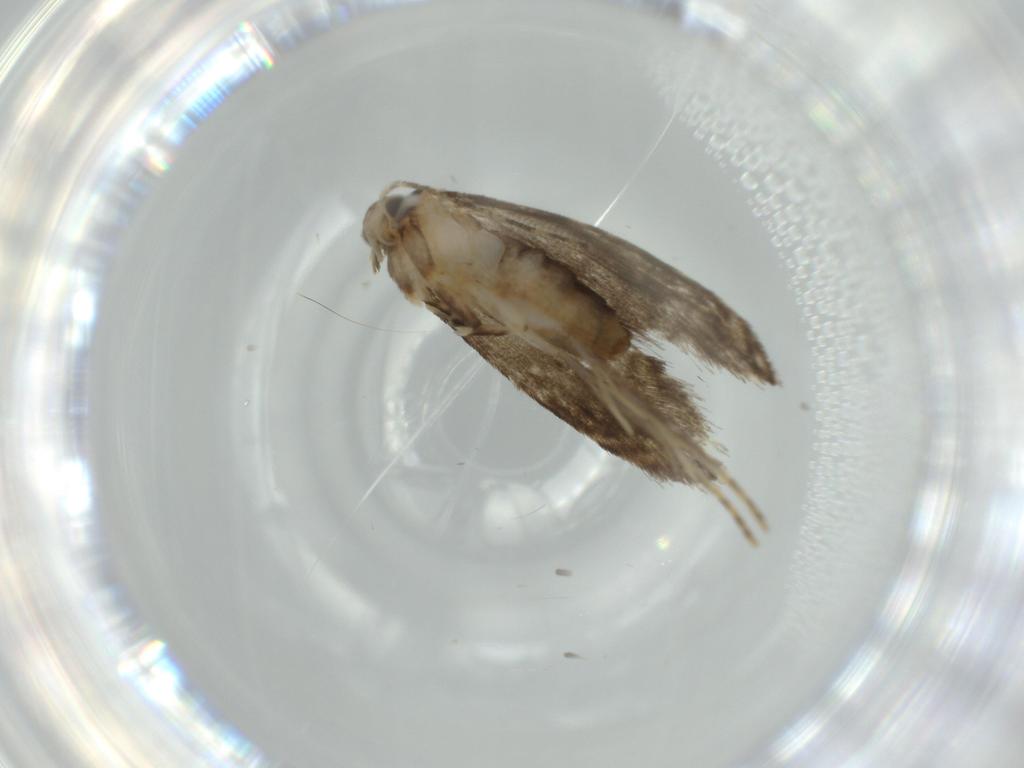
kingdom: Animalia
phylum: Arthropoda
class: Insecta
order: Lepidoptera
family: Tineidae
